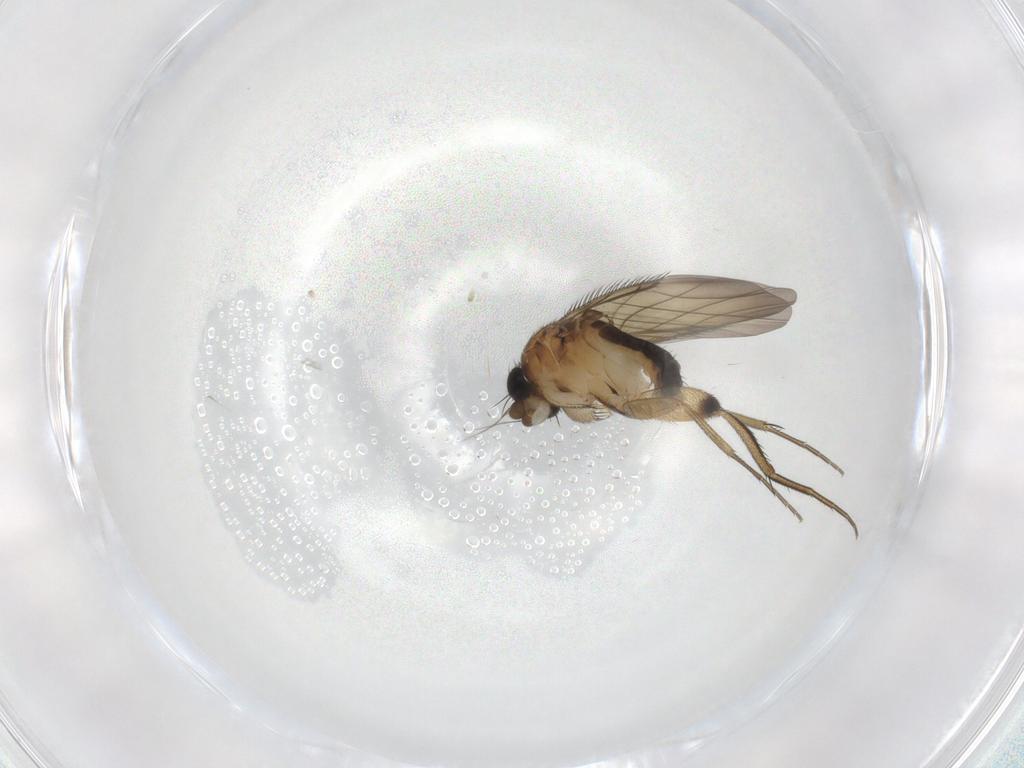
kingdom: Animalia
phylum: Arthropoda
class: Insecta
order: Diptera
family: Phoridae
